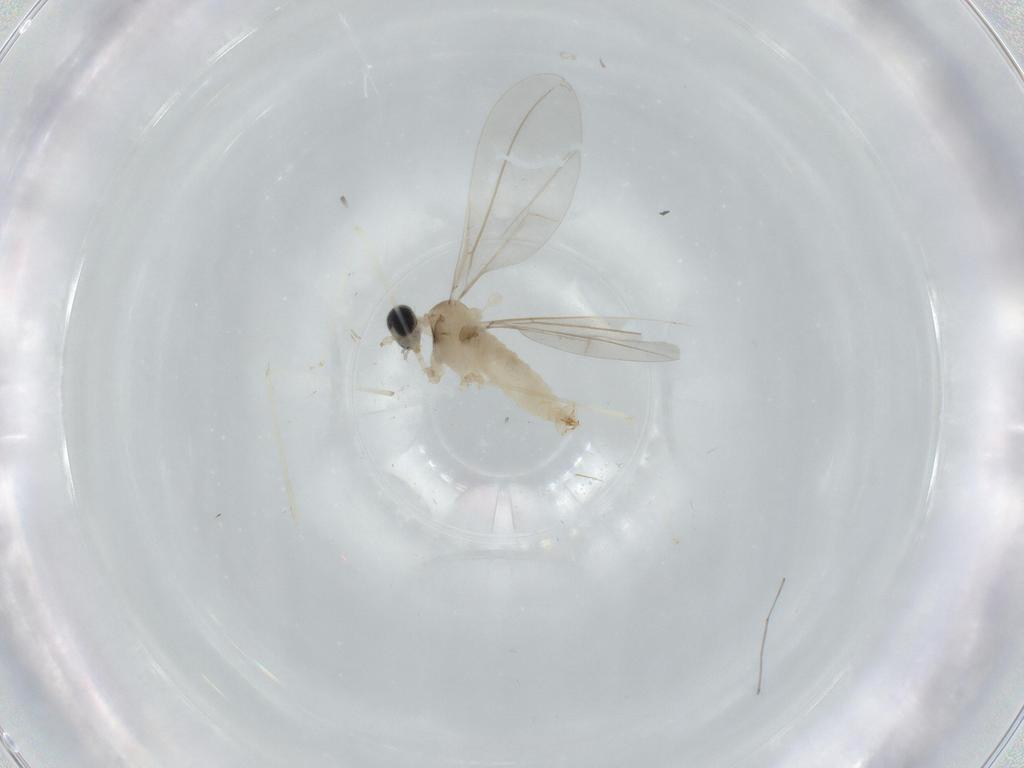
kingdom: Animalia
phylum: Arthropoda
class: Insecta
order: Diptera
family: Cecidomyiidae
